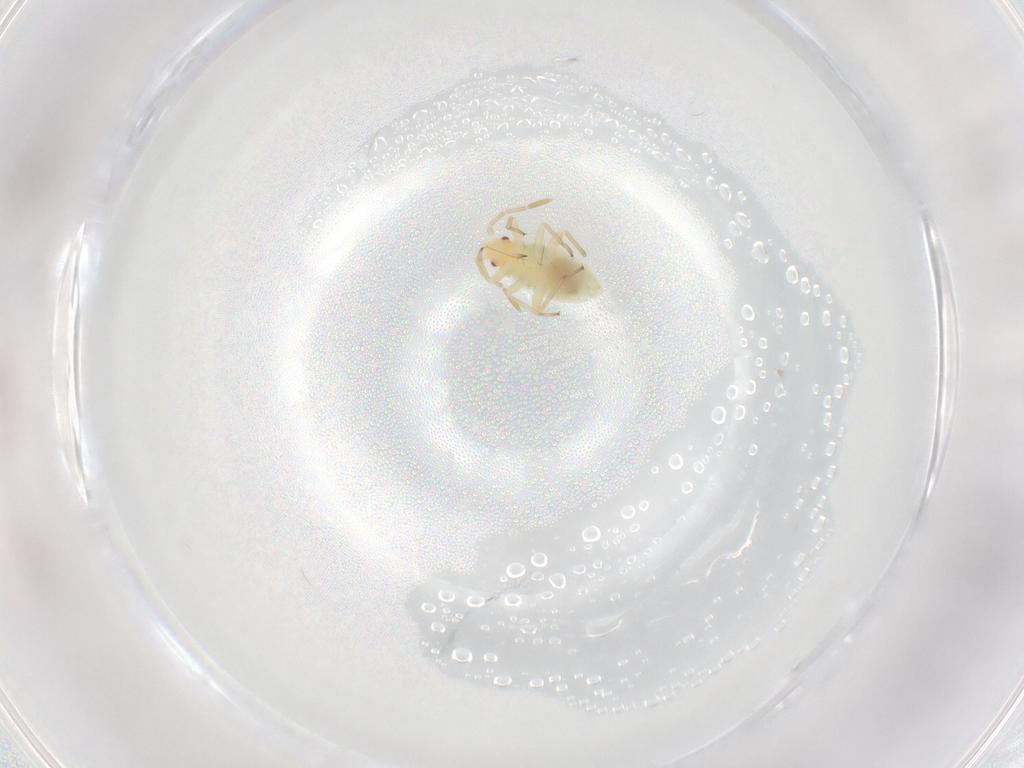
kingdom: Animalia
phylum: Arthropoda
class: Insecta
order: Hemiptera
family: Miridae
